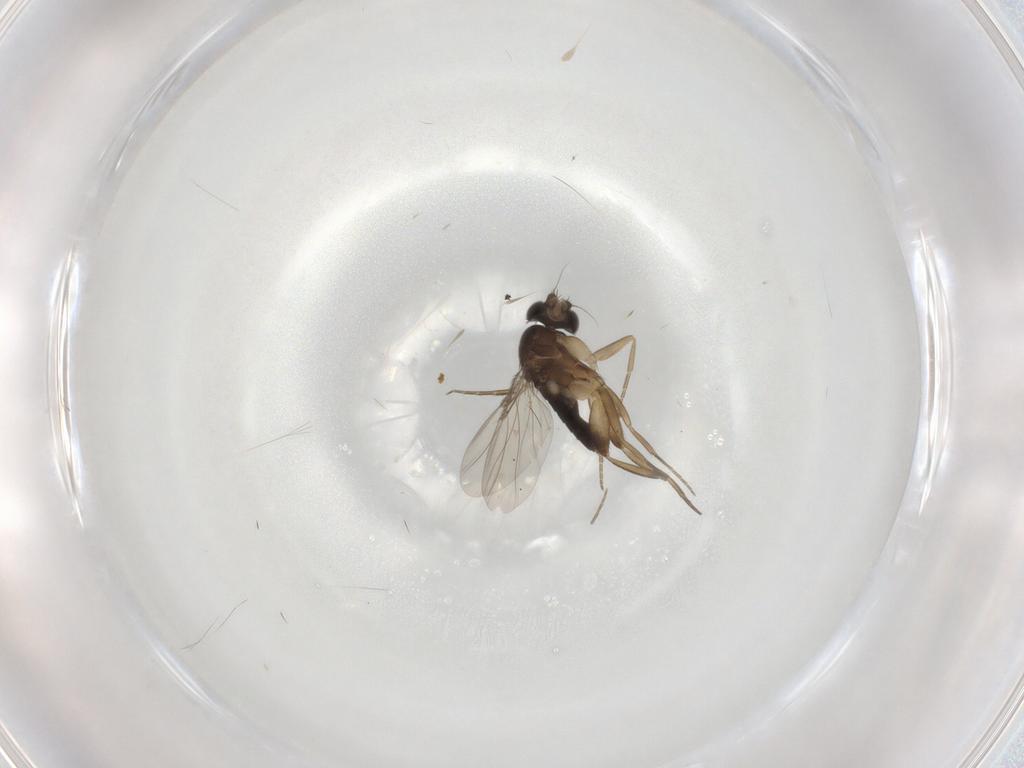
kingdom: Animalia
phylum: Arthropoda
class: Insecta
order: Diptera
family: Phoridae
